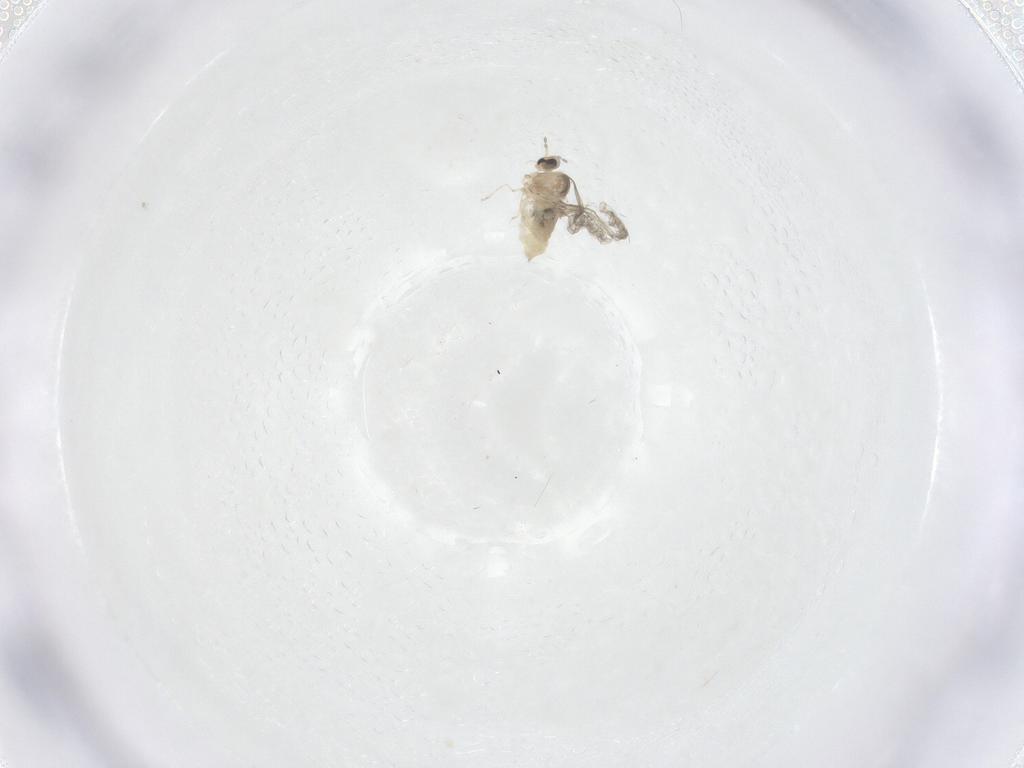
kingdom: Animalia
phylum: Arthropoda
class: Insecta
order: Diptera
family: Cecidomyiidae
